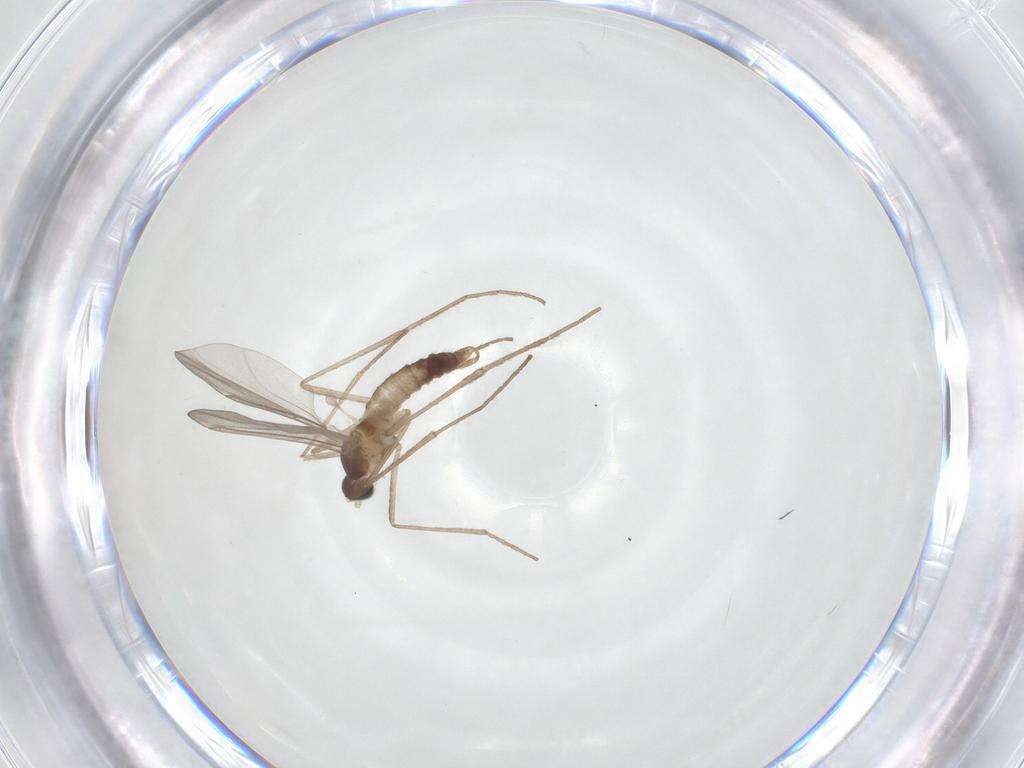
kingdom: Animalia
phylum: Arthropoda
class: Insecta
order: Diptera
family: Cecidomyiidae
